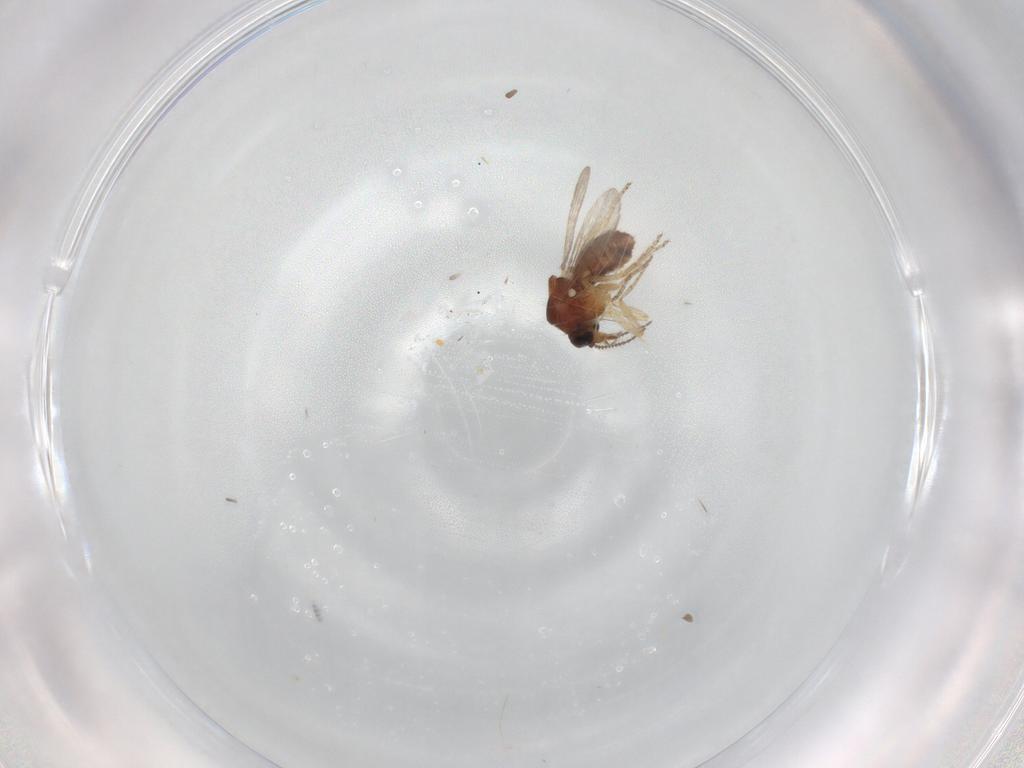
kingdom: Animalia
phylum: Arthropoda
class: Insecta
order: Diptera
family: Ceratopogonidae
